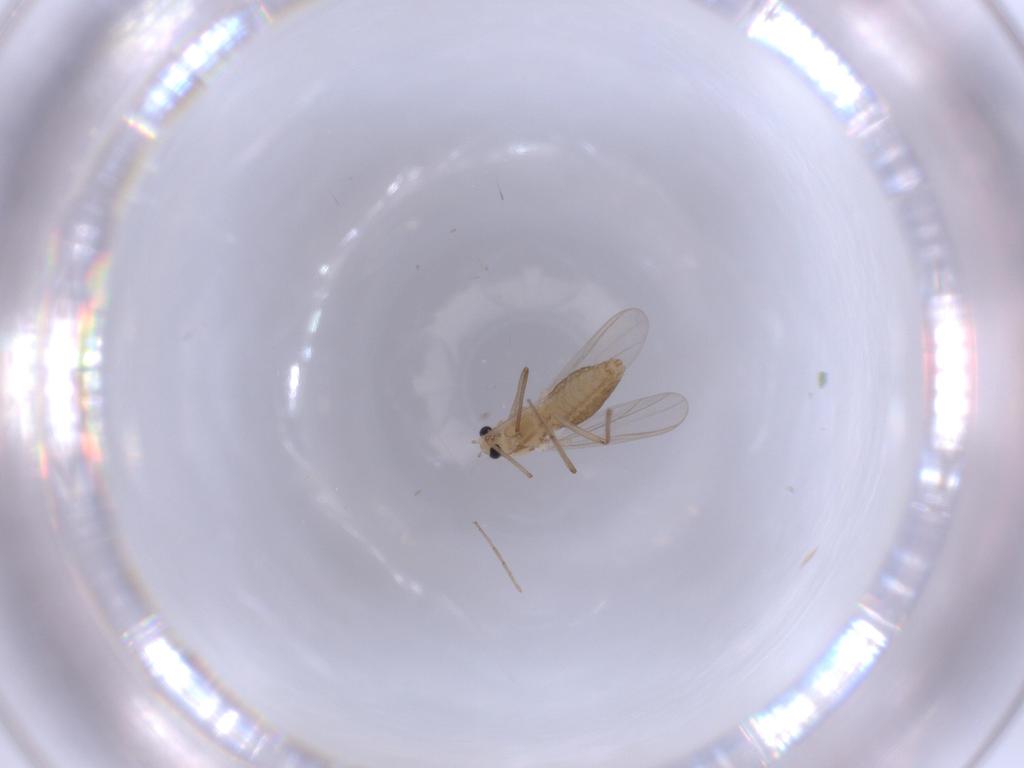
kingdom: Animalia
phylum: Arthropoda
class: Insecta
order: Diptera
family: Chironomidae
